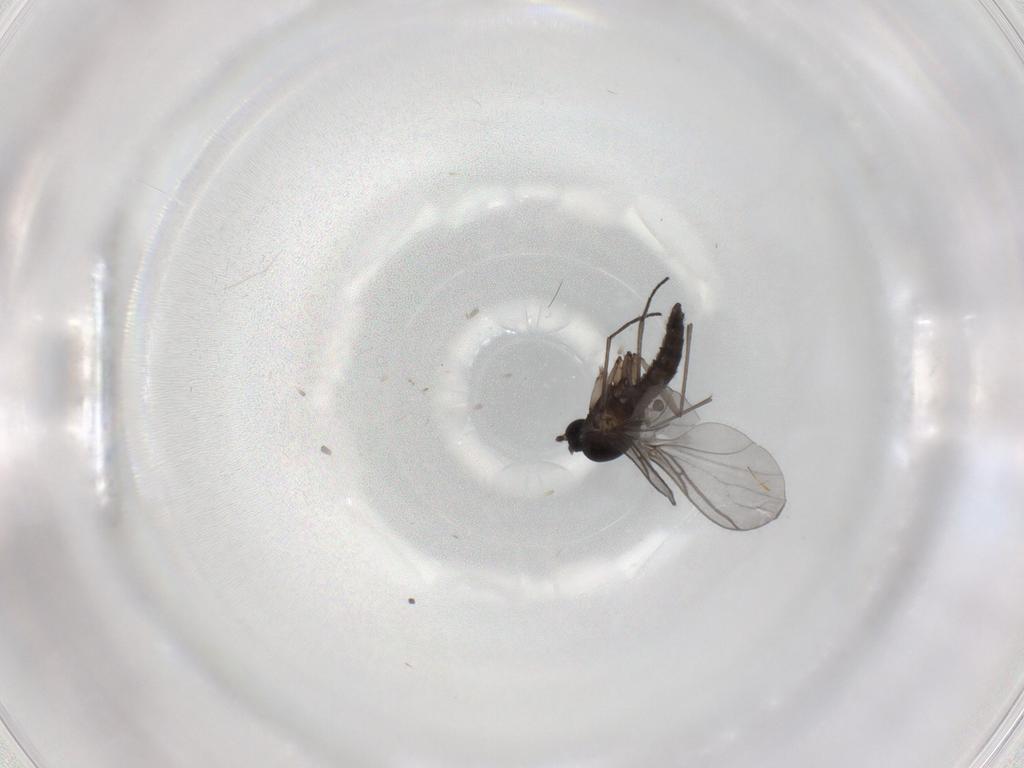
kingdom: Animalia
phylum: Arthropoda
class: Insecta
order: Diptera
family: Cecidomyiidae
